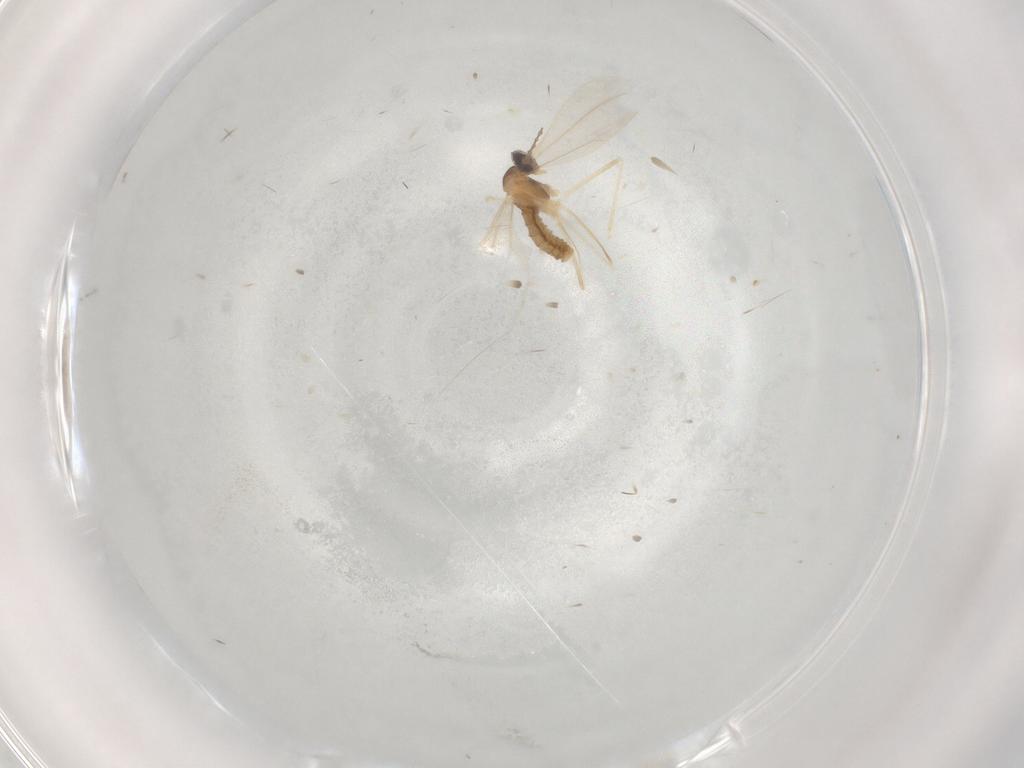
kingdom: Animalia
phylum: Arthropoda
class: Insecta
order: Diptera
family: Cecidomyiidae
